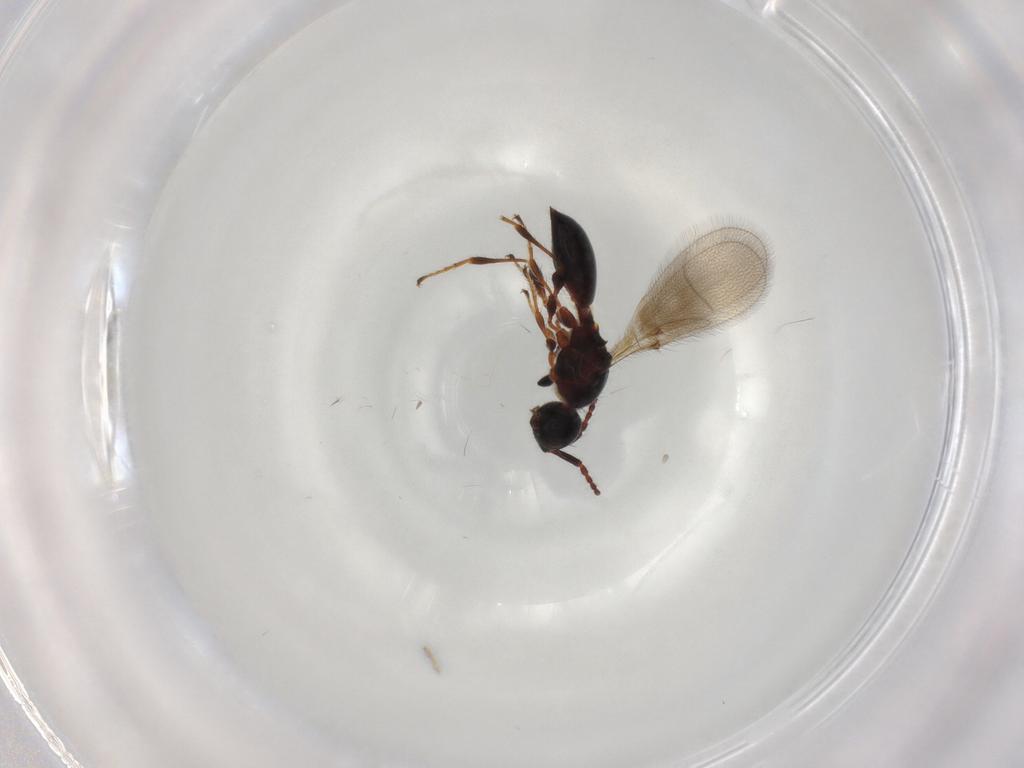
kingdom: Animalia
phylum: Arthropoda
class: Insecta
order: Hymenoptera
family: Diapriidae
